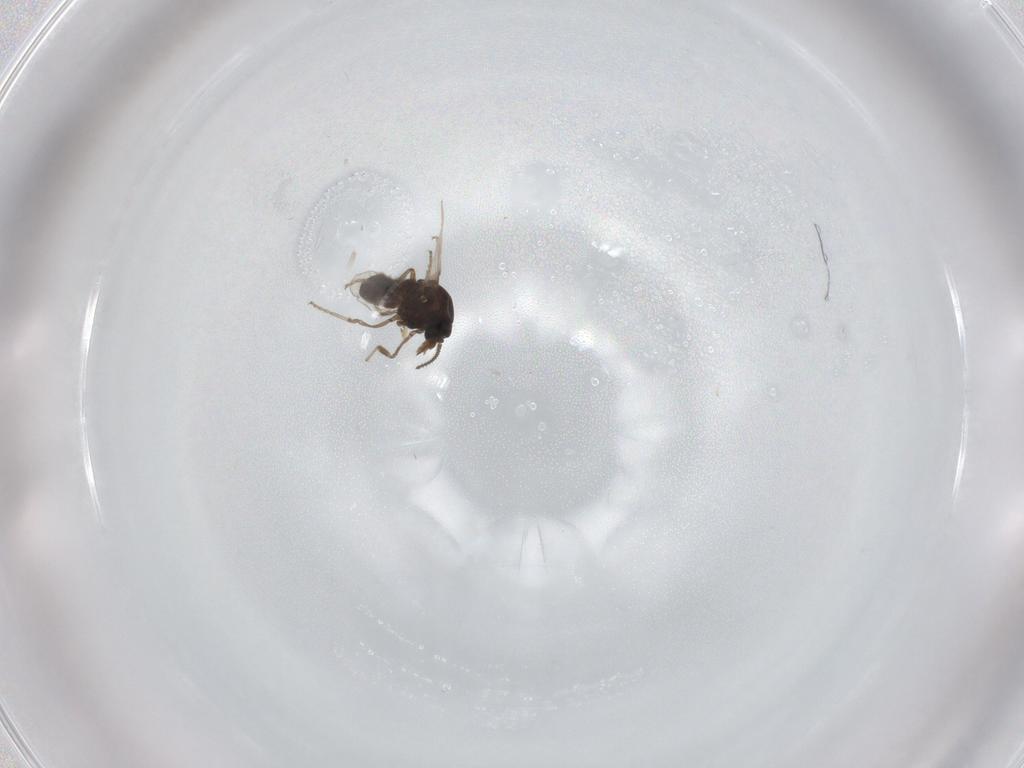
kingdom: Animalia
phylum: Arthropoda
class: Insecta
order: Diptera
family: Ceratopogonidae
